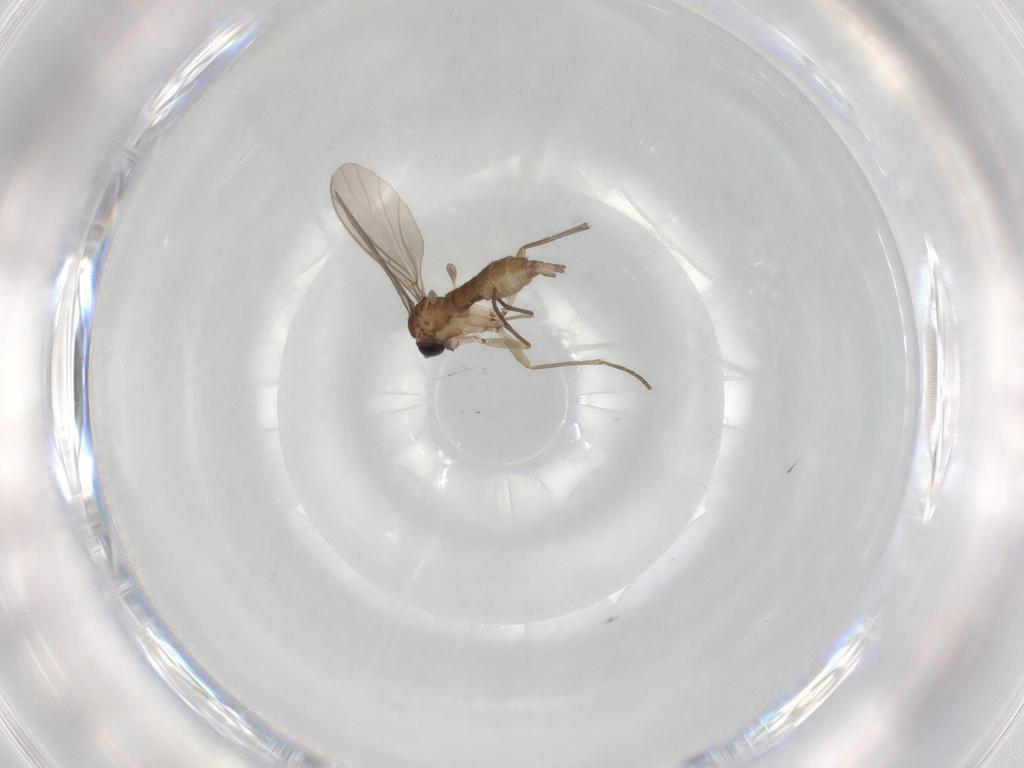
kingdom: Animalia
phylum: Arthropoda
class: Insecta
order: Diptera
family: Sciaridae
